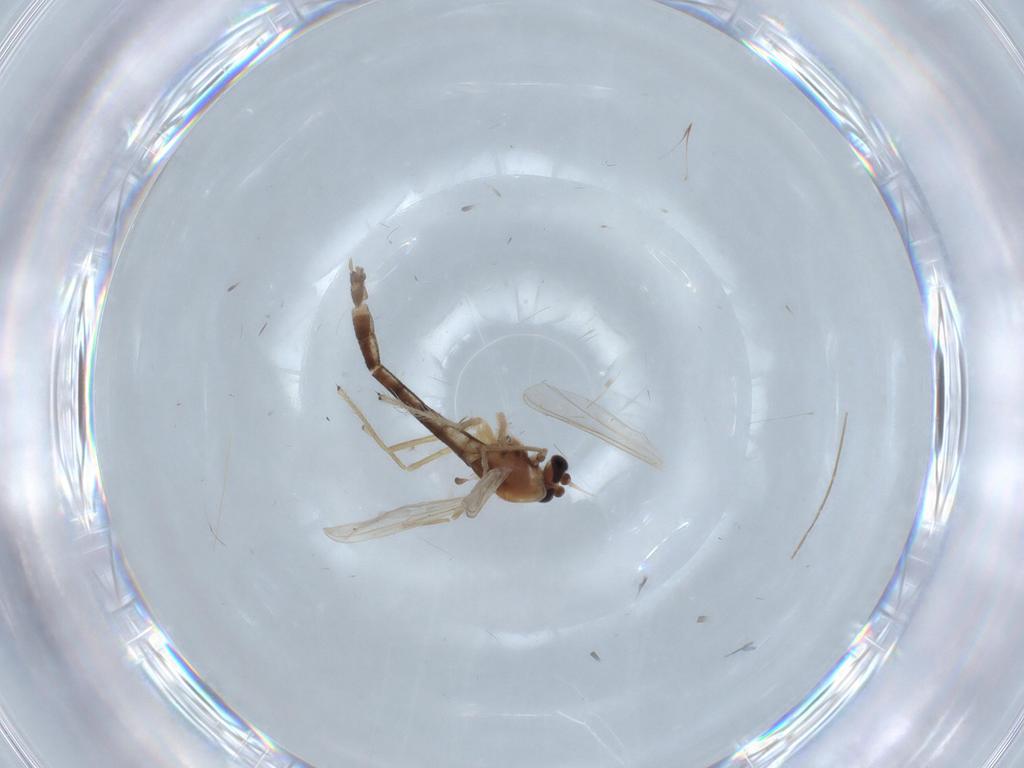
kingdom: Animalia
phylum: Arthropoda
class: Insecta
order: Diptera
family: Chironomidae
